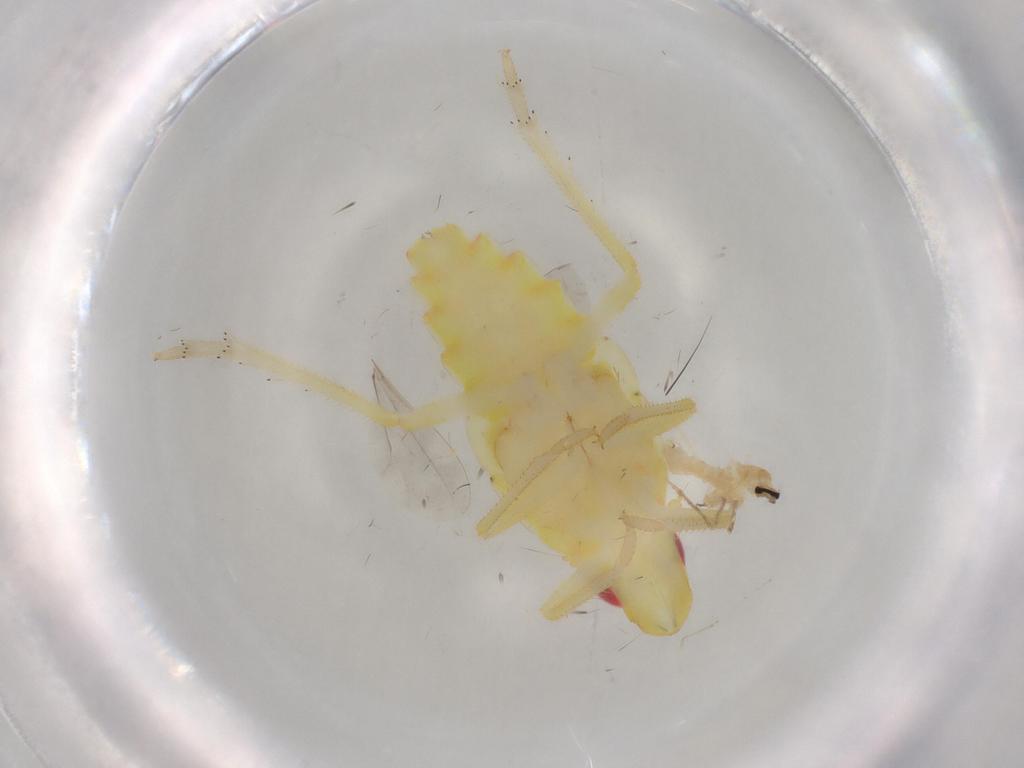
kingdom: Animalia
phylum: Arthropoda
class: Insecta
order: Hemiptera
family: Tropiduchidae
